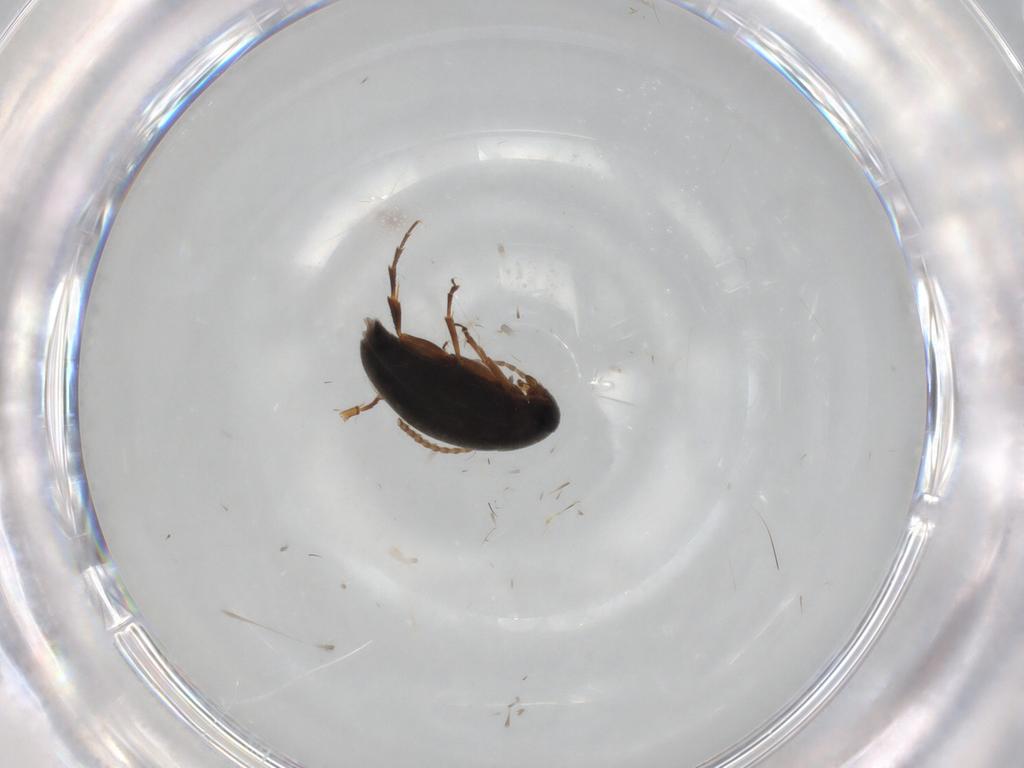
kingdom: Animalia
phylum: Arthropoda
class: Insecta
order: Coleoptera
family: Scraptiidae
